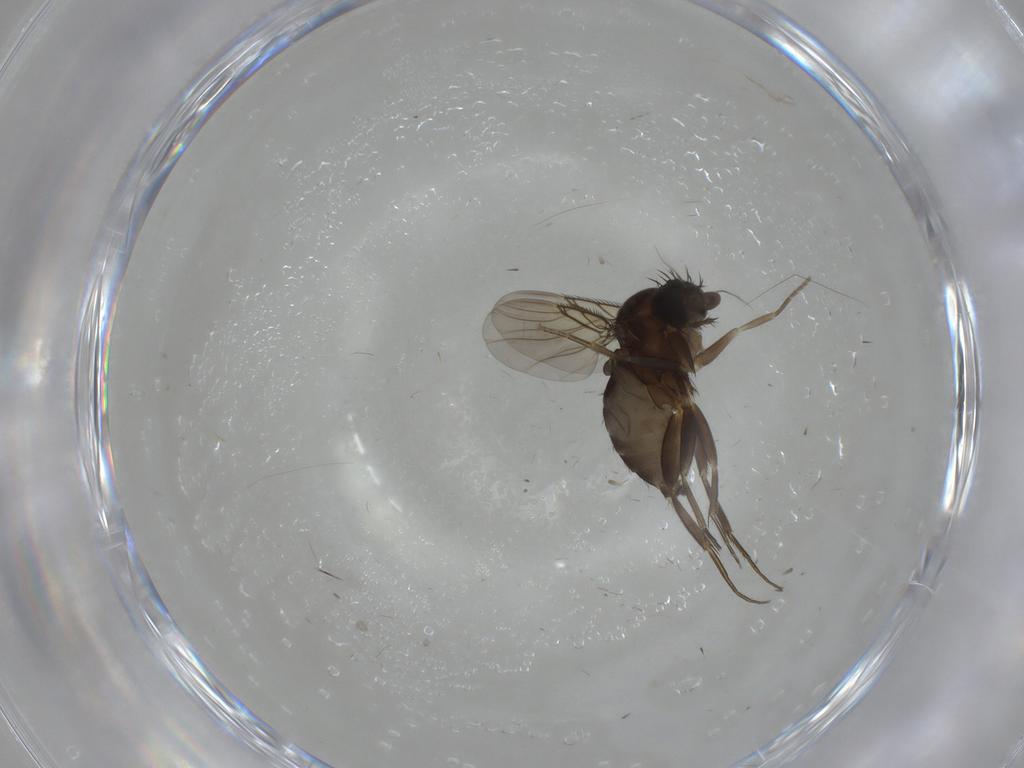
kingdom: Animalia
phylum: Arthropoda
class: Insecta
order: Diptera
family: Phoridae
